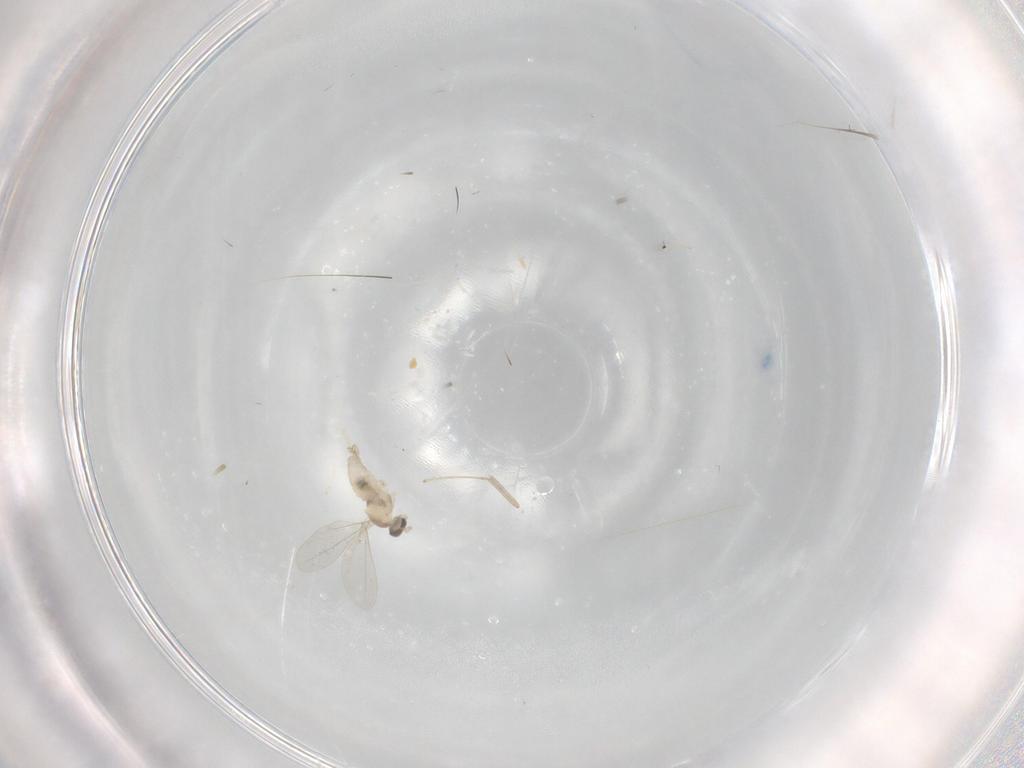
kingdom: Animalia
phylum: Arthropoda
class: Insecta
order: Diptera
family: Cecidomyiidae
